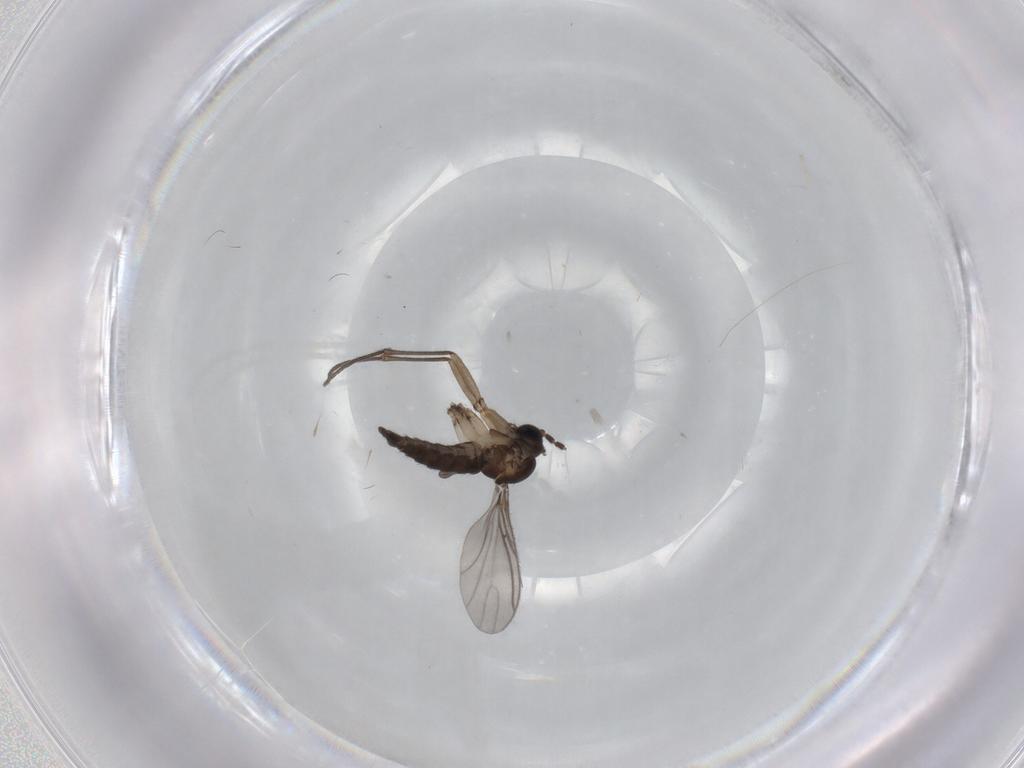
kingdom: Animalia
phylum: Arthropoda
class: Insecta
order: Diptera
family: Sciaridae
